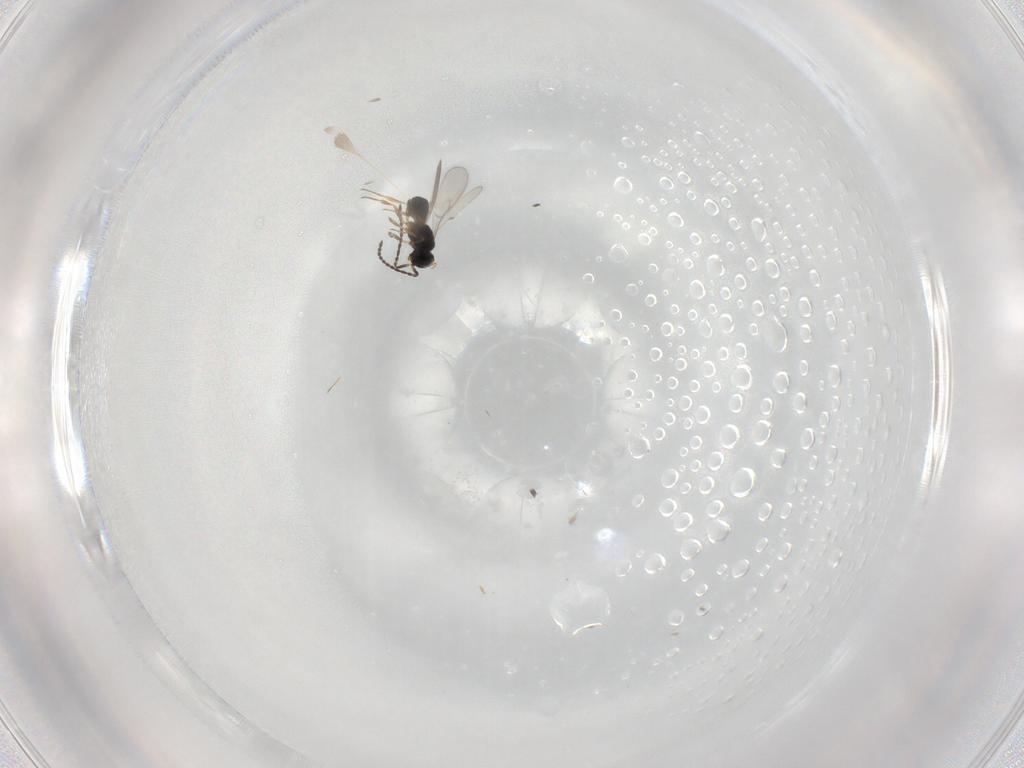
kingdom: Animalia
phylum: Arthropoda
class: Insecta
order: Hymenoptera
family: Scelionidae
